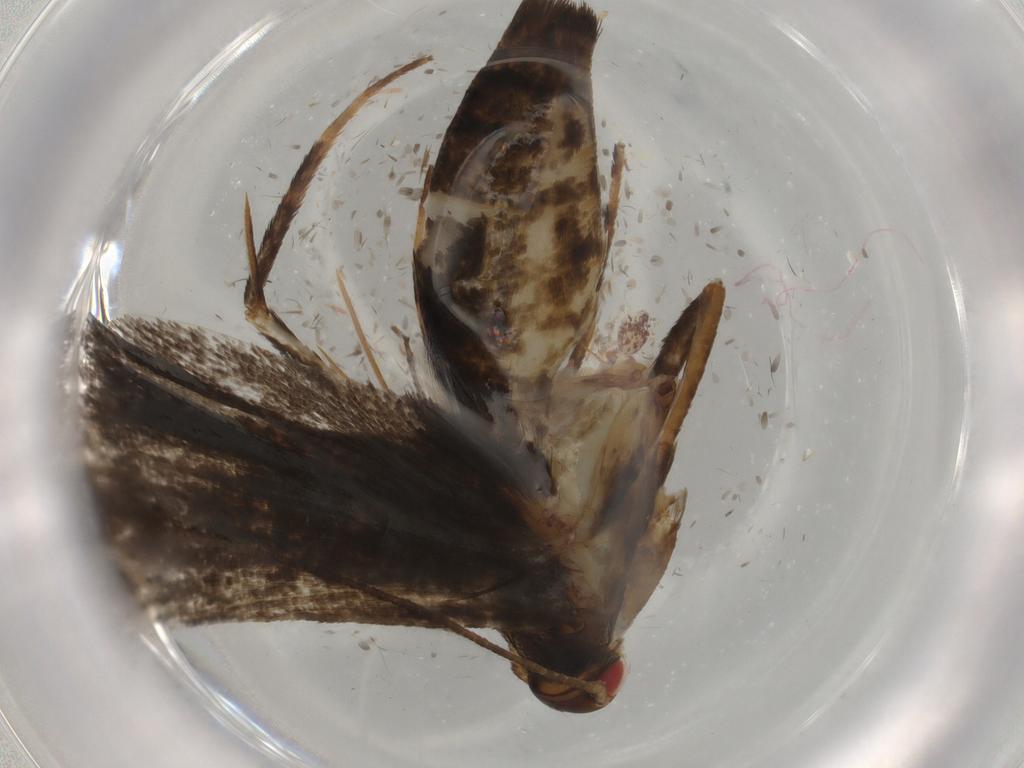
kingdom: Animalia
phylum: Arthropoda
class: Insecta
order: Lepidoptera
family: Gelechiidae
